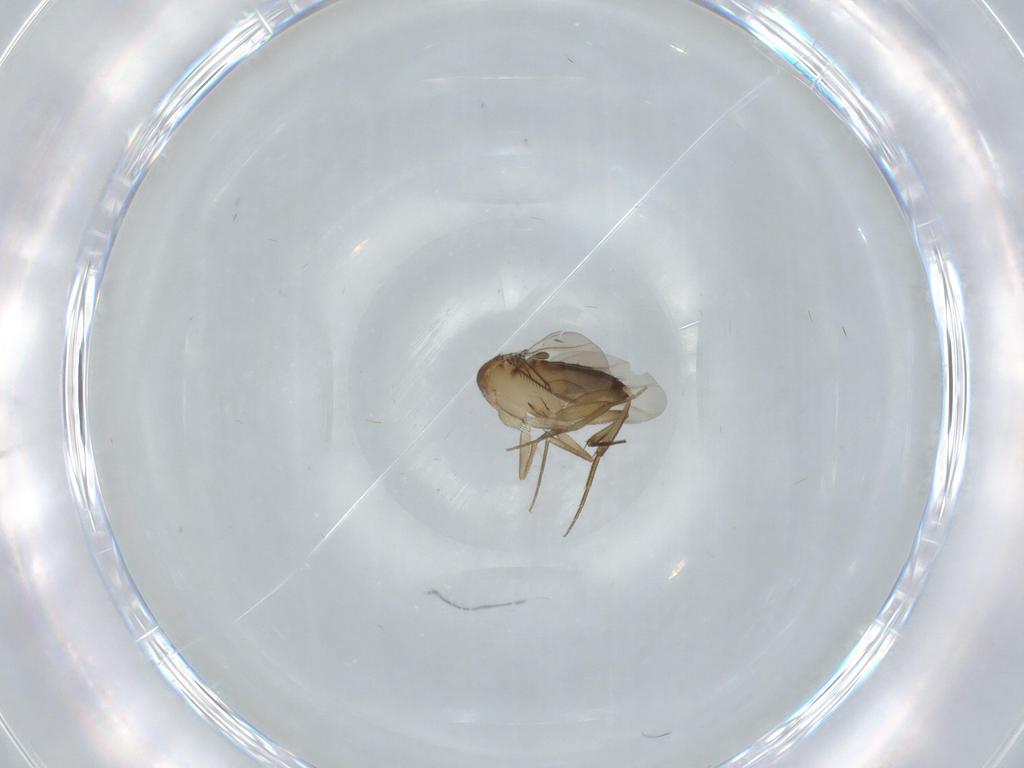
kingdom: Animalia
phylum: Arthropoda
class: Insecta
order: Diptera
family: Phoridae
